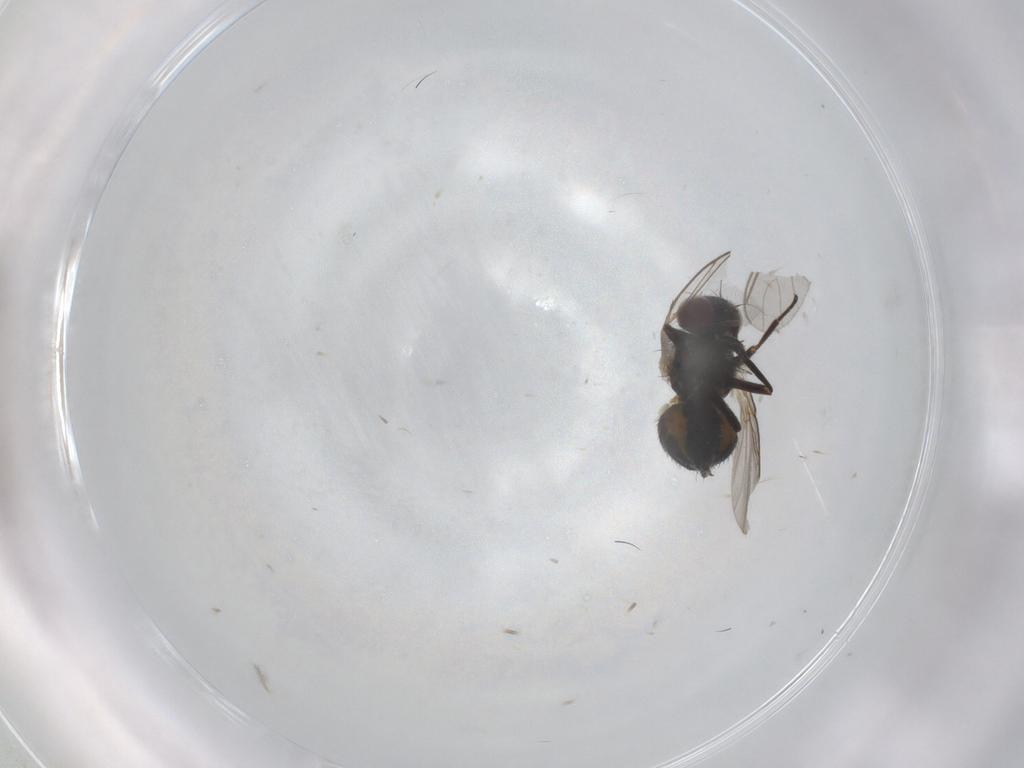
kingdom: Animalia
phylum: Arthropoda
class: Insecta
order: Diptera
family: Ceratopogonidae
